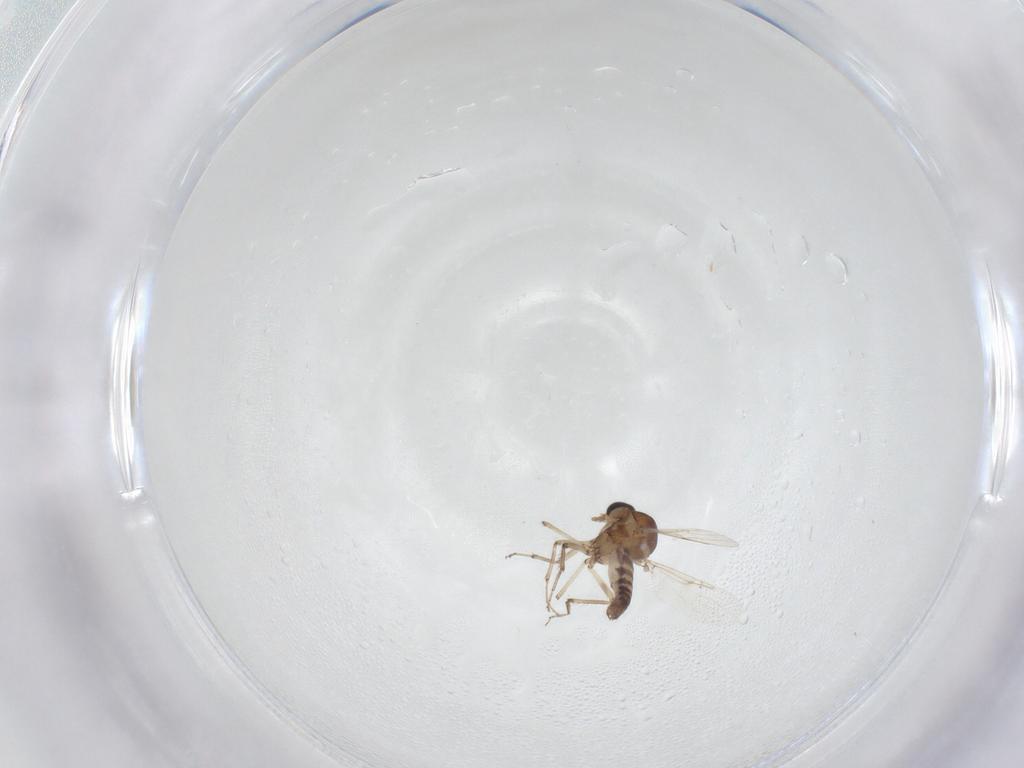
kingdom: Animalia
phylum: Arthropoda
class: Insecta
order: Diptera
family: Ceratopogonidae
